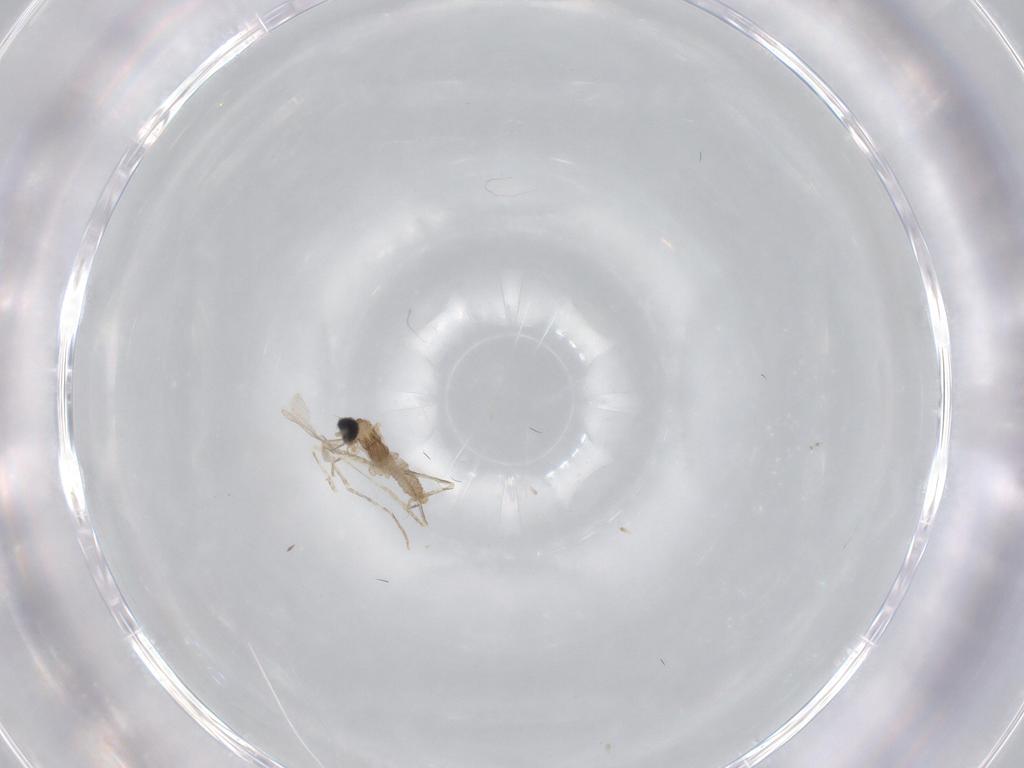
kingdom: Animalia
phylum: Arthropoda
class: Insecta
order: Diptera
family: Cecidomyiidae
